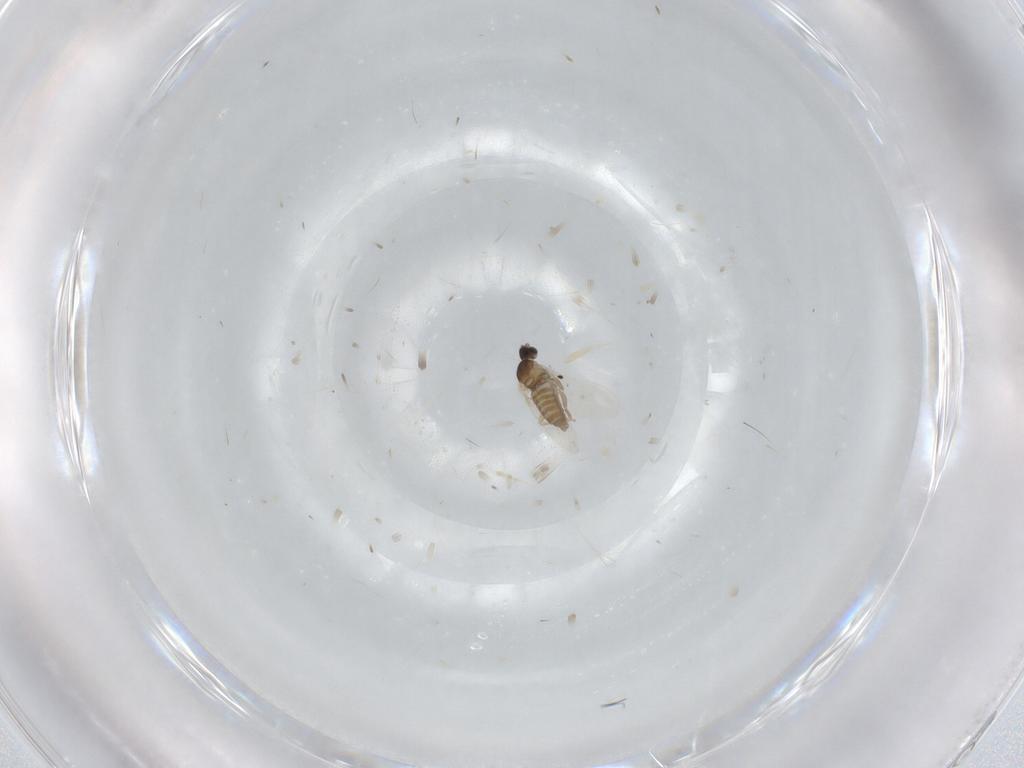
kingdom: Animalia
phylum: Arthropoda
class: Insecta
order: Diptera
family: Cecidomyiidae
